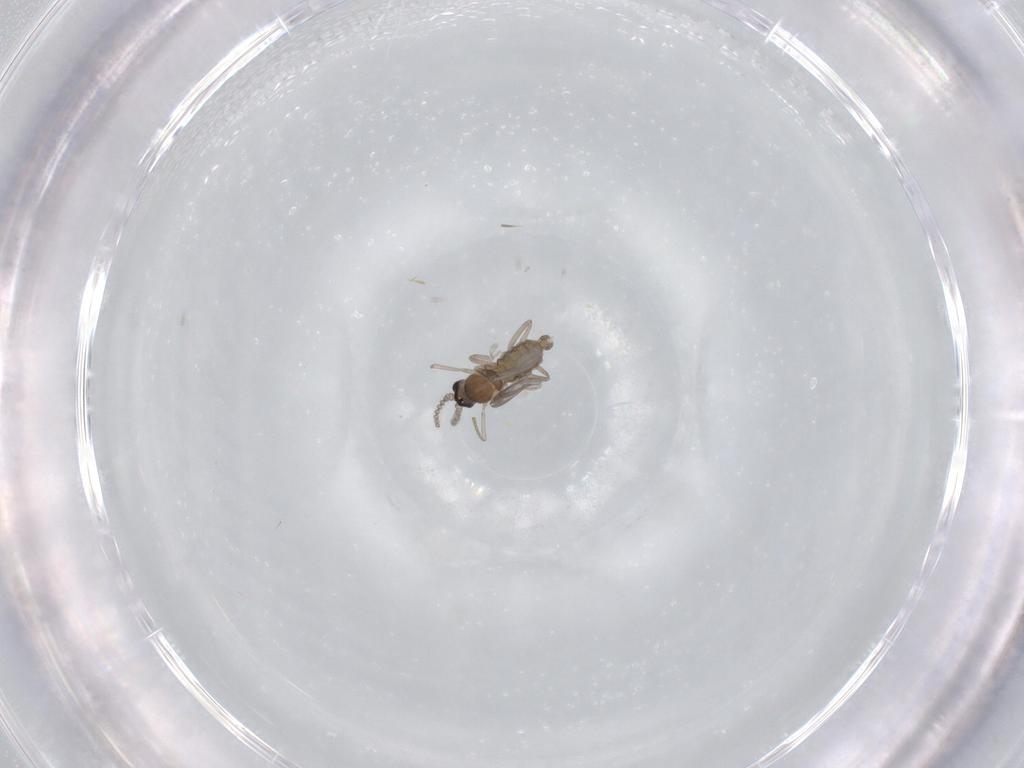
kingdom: Animalia
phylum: Arthropoda
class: Insecta
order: Diptera
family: Cecidomyiidae
